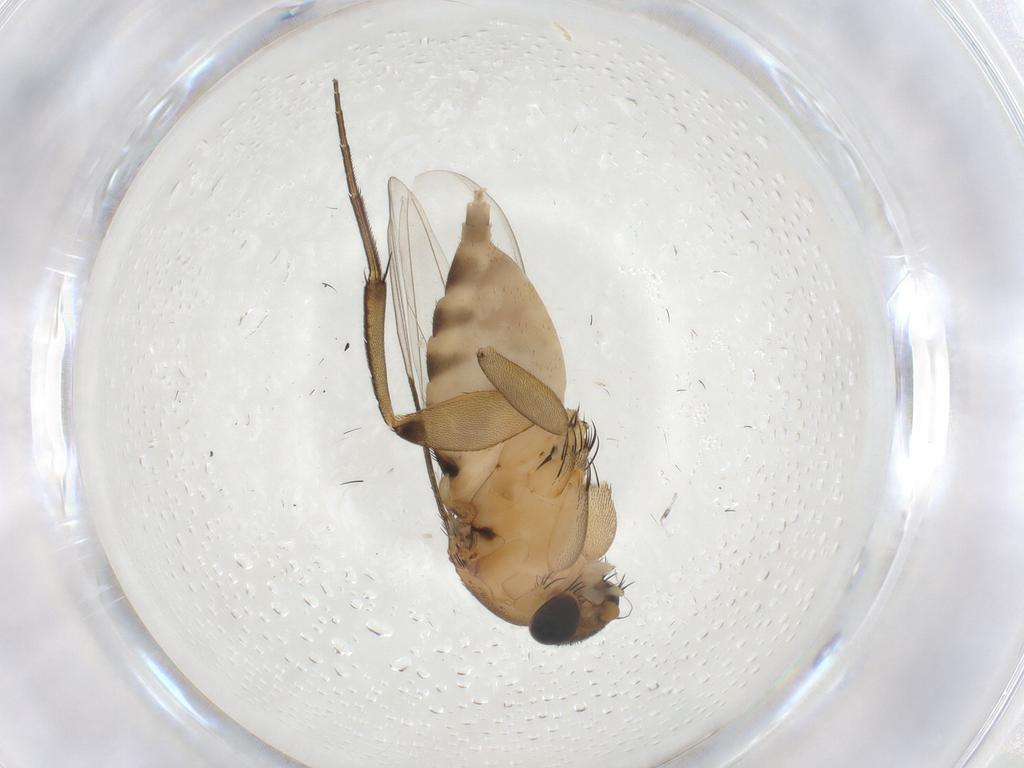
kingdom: Animalia
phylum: Arthropoda
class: Insecta
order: Diptera
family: Phoridae
